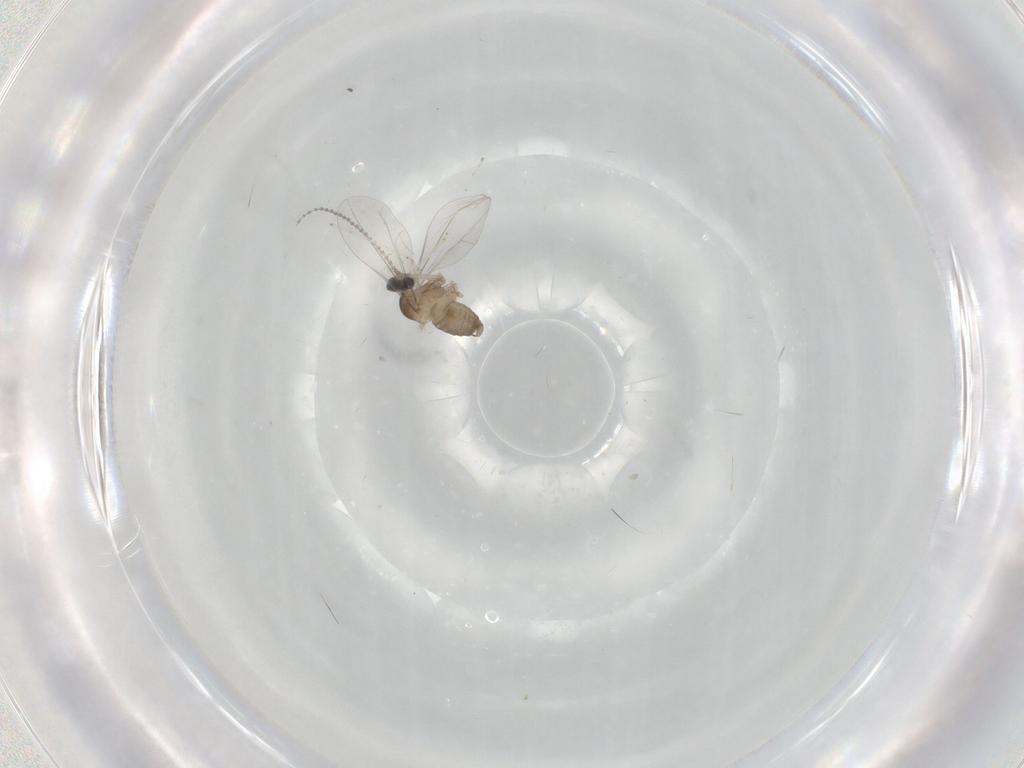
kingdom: Animalia
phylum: Arthropoda
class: Insecta
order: Diptera
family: Cecidomyiidae
